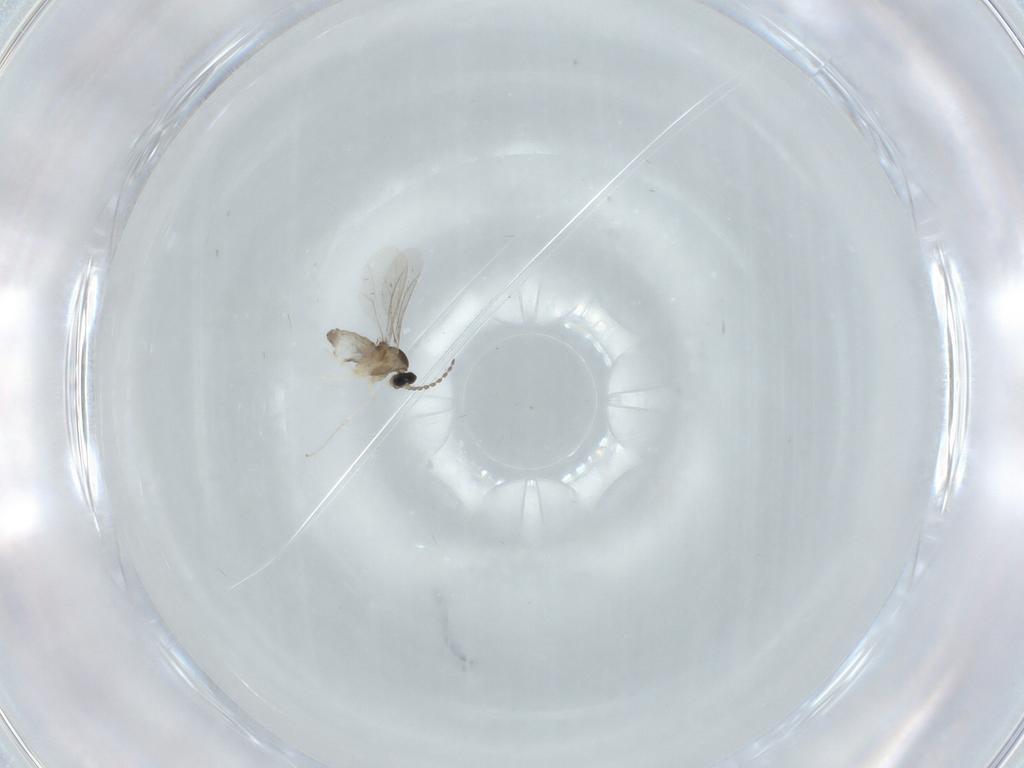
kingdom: Animalia
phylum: Arthropoda
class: Insecta
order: Diptera
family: Cecidomyiidae
